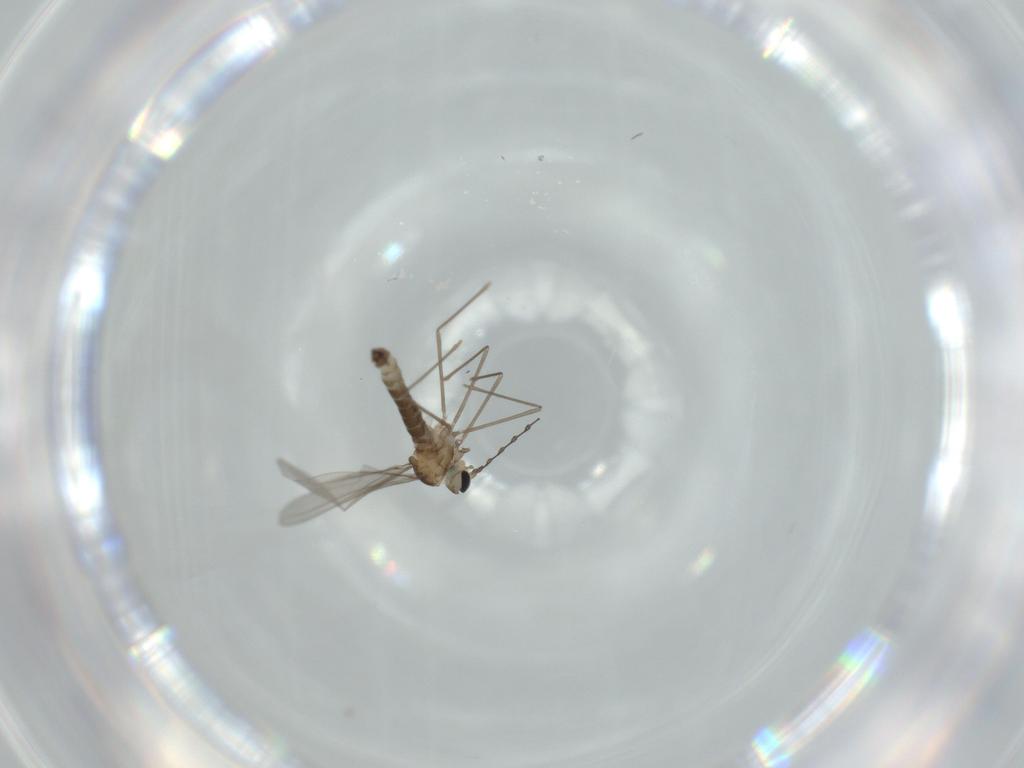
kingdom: Animalia
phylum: Arthropoda
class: Insecta
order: Diptera
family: Cecidomyiidae
